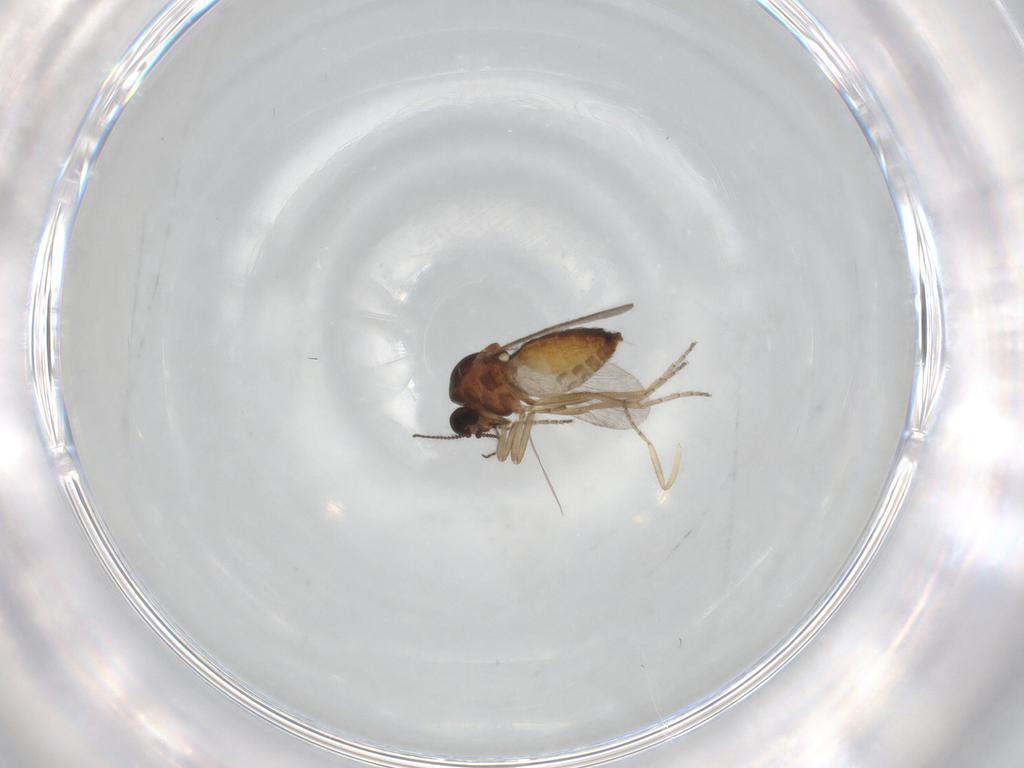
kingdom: Animalia
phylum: Arthropoda
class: Insecta
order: Diptera
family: Ceratopogonidae
